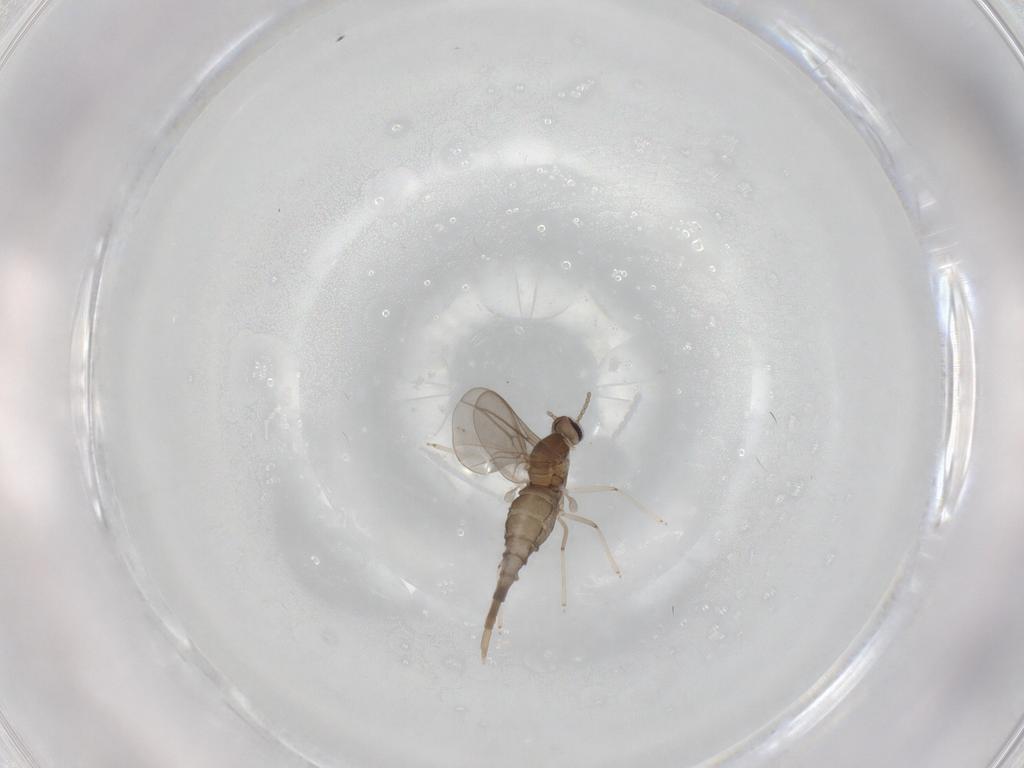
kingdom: Animalia
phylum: Arthropoda
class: Insecta
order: Diptera
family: Cecidomyiidae
